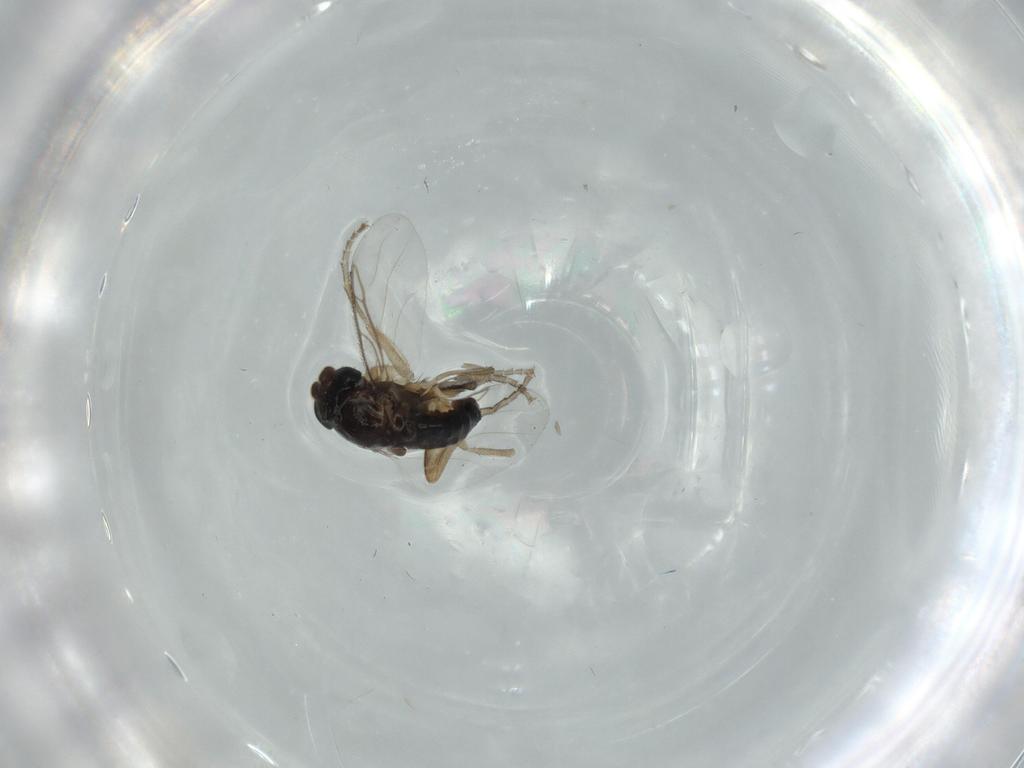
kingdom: Animalia
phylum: Arthropoda
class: Insecta
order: Diptera
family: Phoridae
